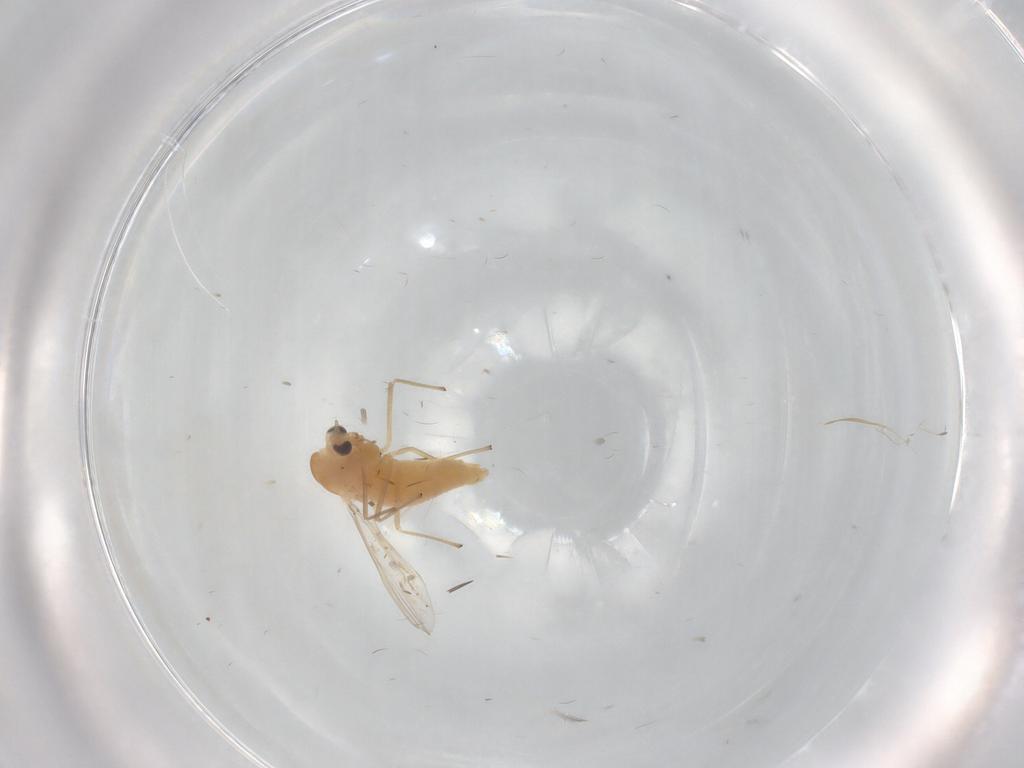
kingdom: Animalia
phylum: Arthropoda
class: Insecta
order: Diptera
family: Chironomidae
